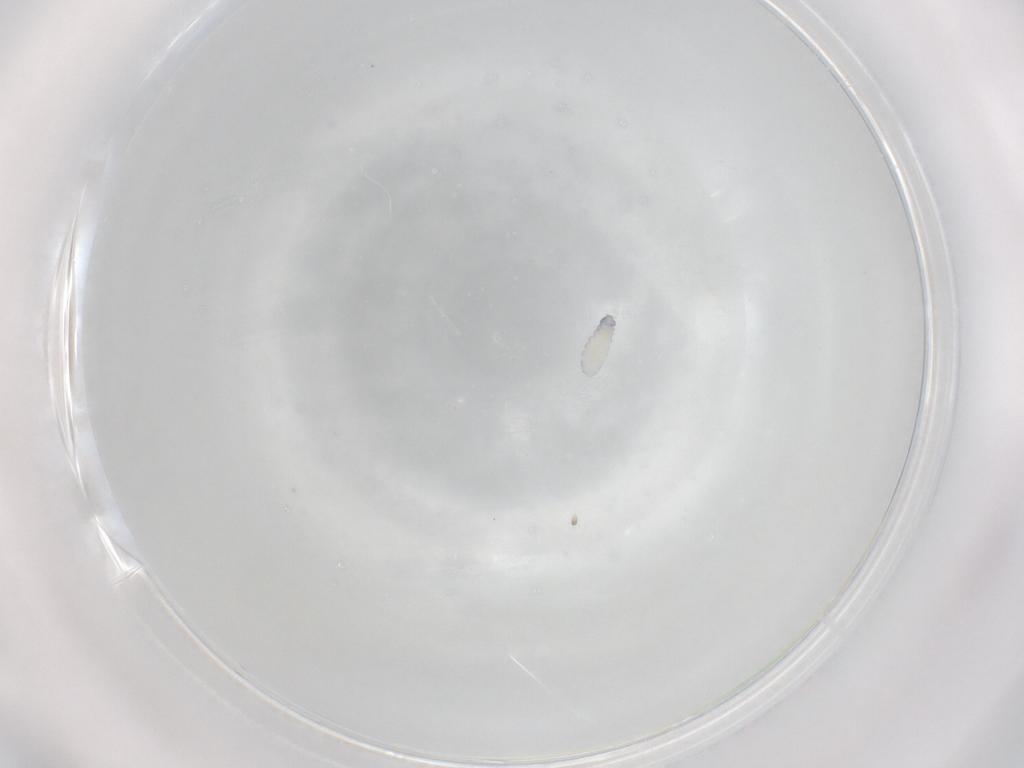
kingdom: Animalia
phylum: Arthropoda
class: Collembola
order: Poduromorpha
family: Hypogastruridae
